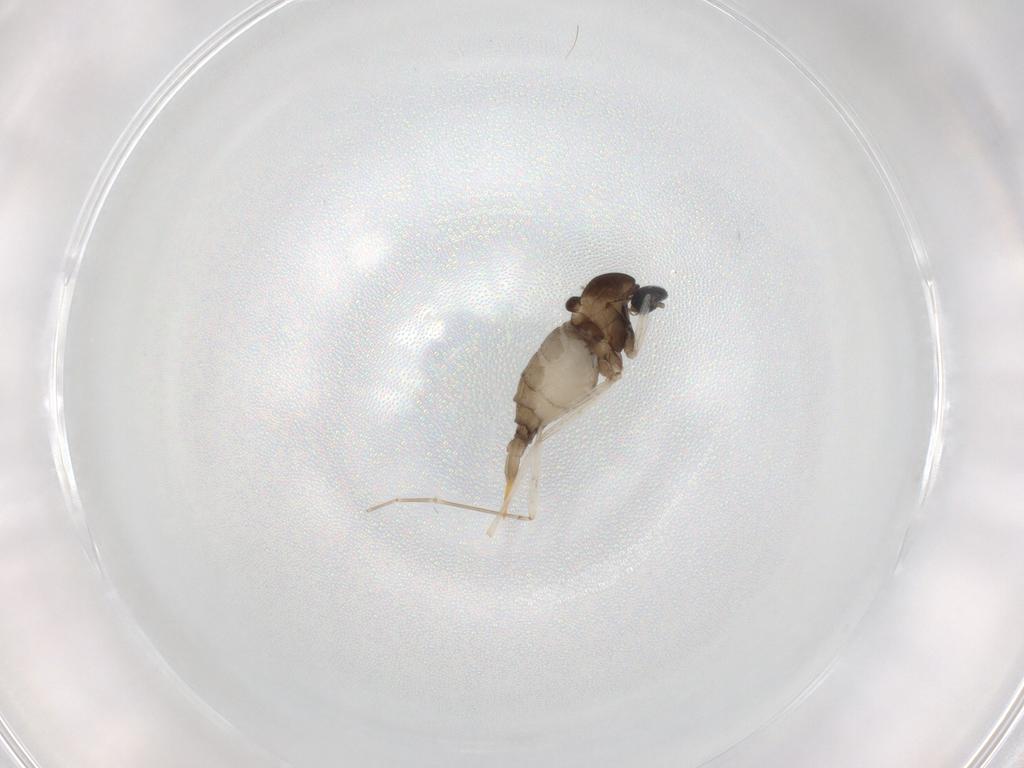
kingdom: Animalia
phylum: Arthropoda
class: Insecta
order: Diptera
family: Cecidomyiidae
